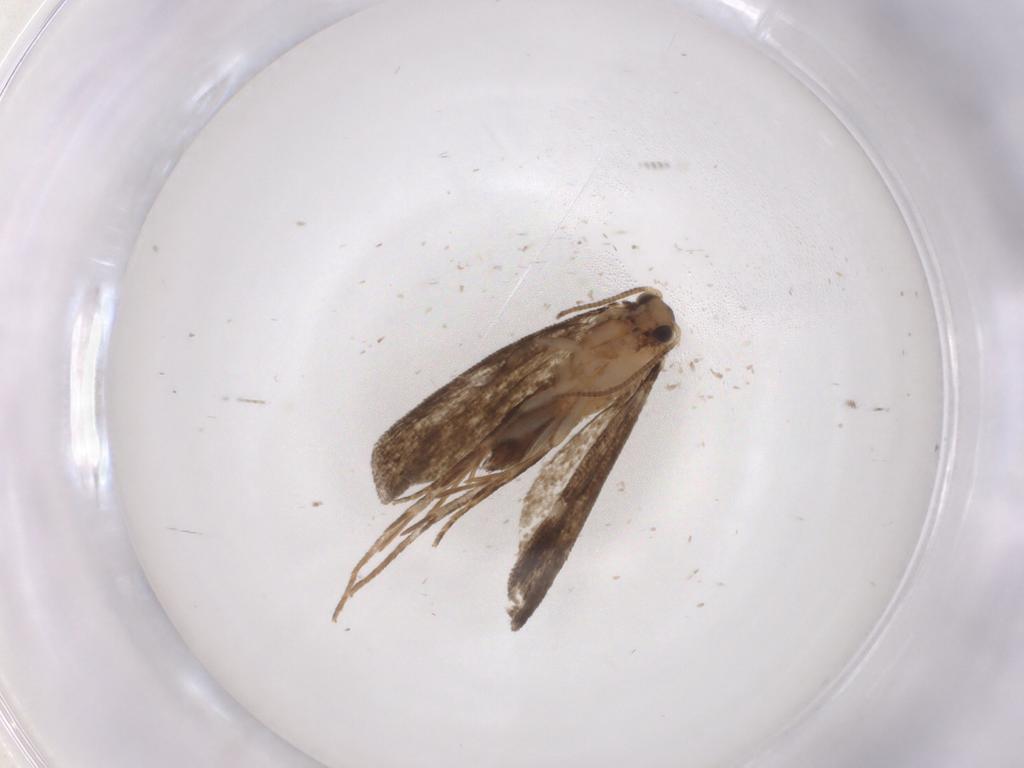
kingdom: Animalia
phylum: Arthropoda
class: Insecta
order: Lepidoptera
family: Tineidae
